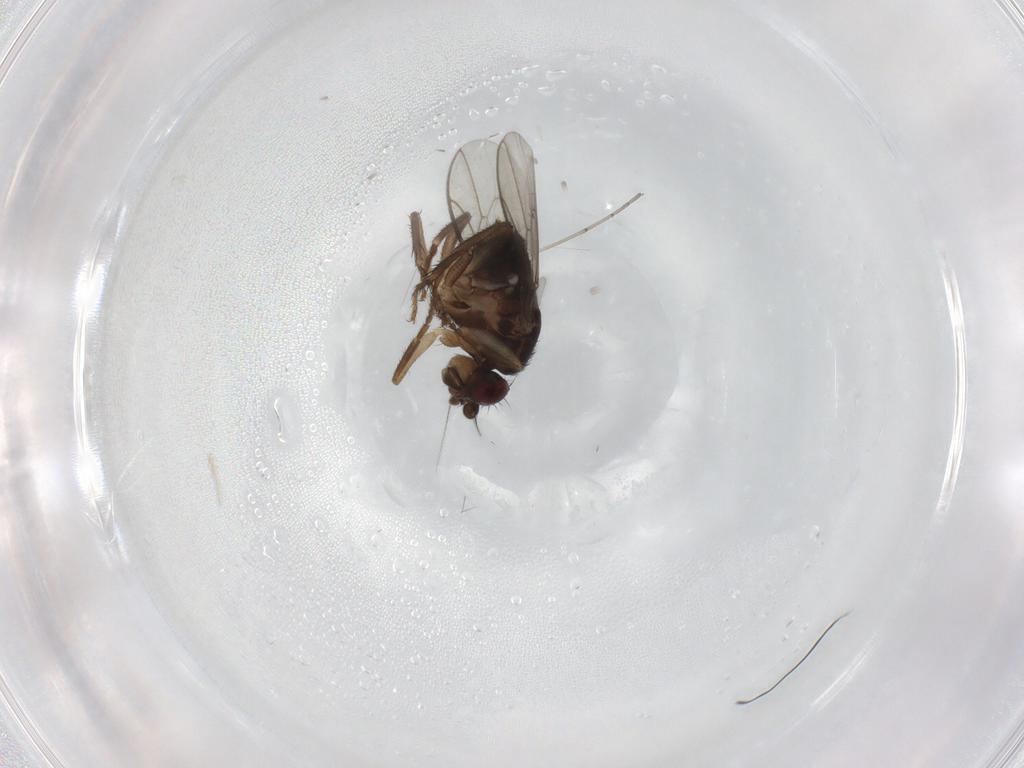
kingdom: Animalia
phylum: Arthropoda
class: Insecta
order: Diptera
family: Sphaeroceridae
